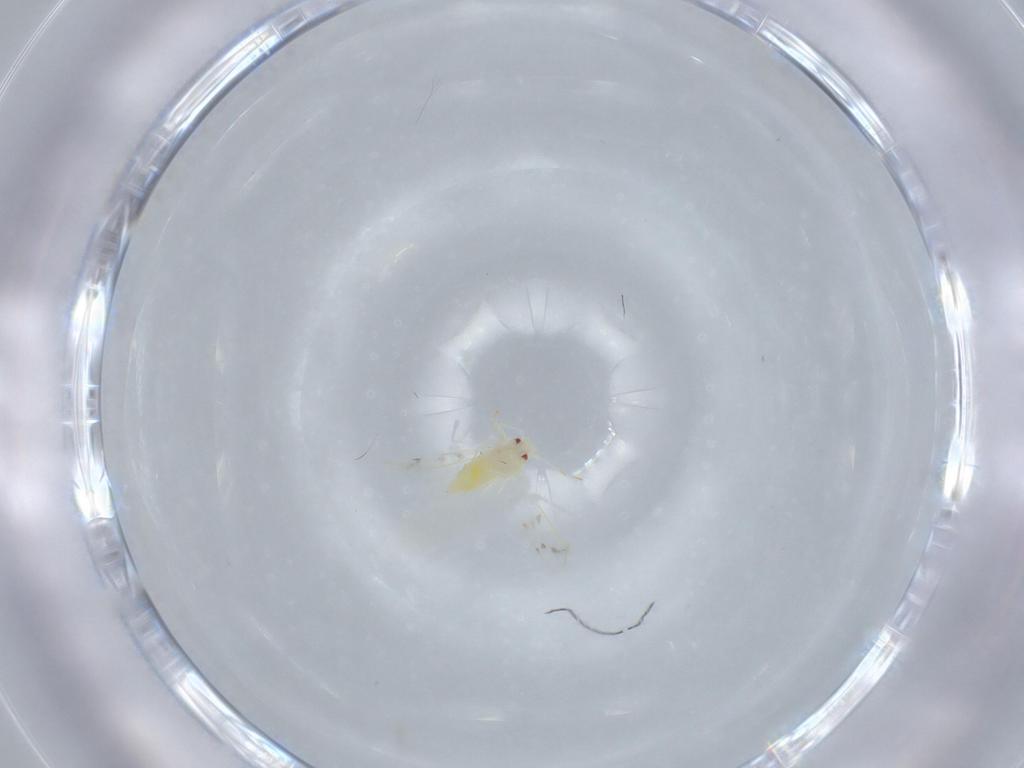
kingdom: Animalia
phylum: Arthropoda
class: Insecta
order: Hemiptera
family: Aleyrodidae
